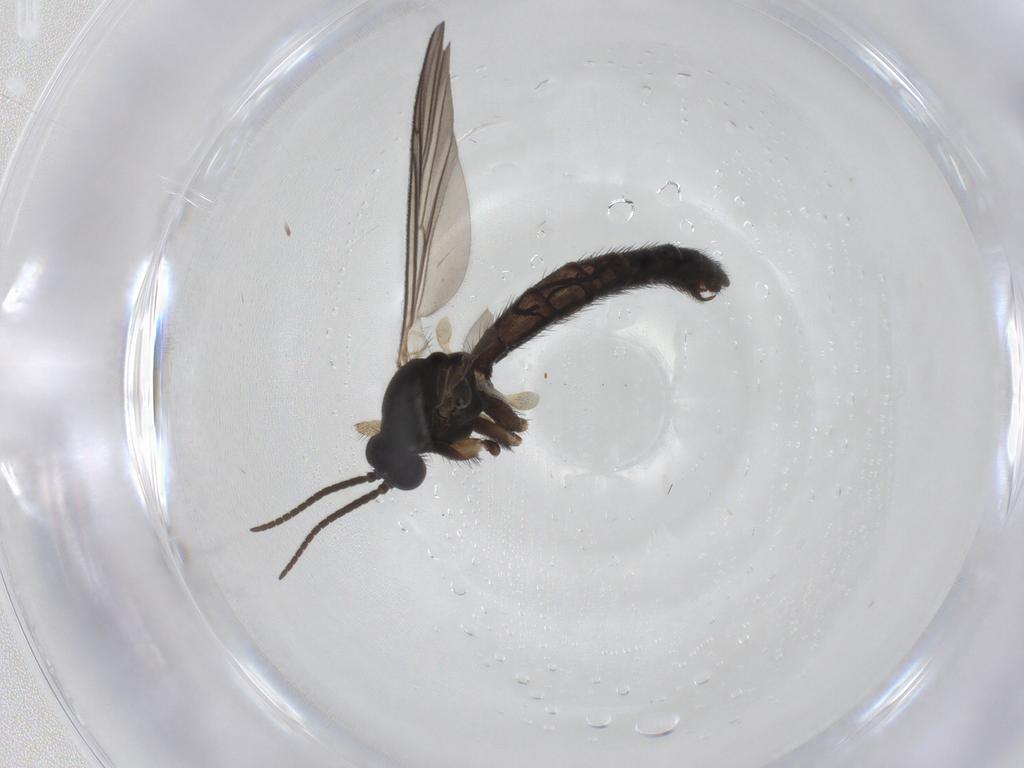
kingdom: Animalia
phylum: Arthropoda
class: Insecta
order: Diptera
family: Keroplatidae
